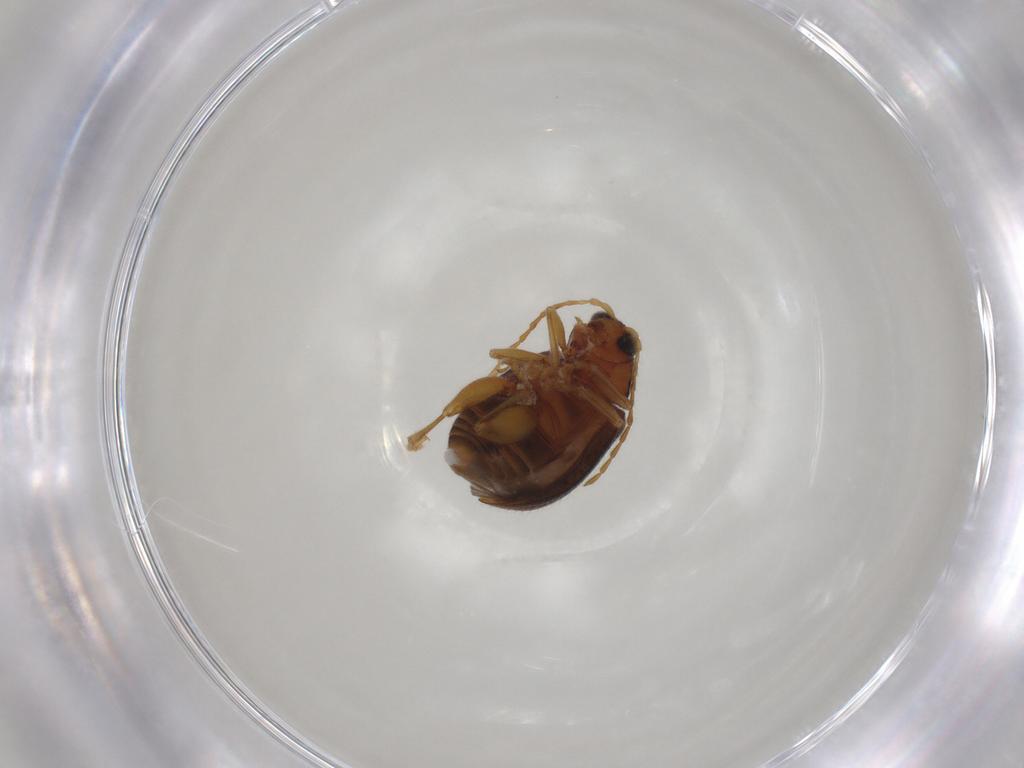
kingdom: Animalia
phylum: Arthropoda
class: Insecta
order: Coleoptera
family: Chrysomelidae
